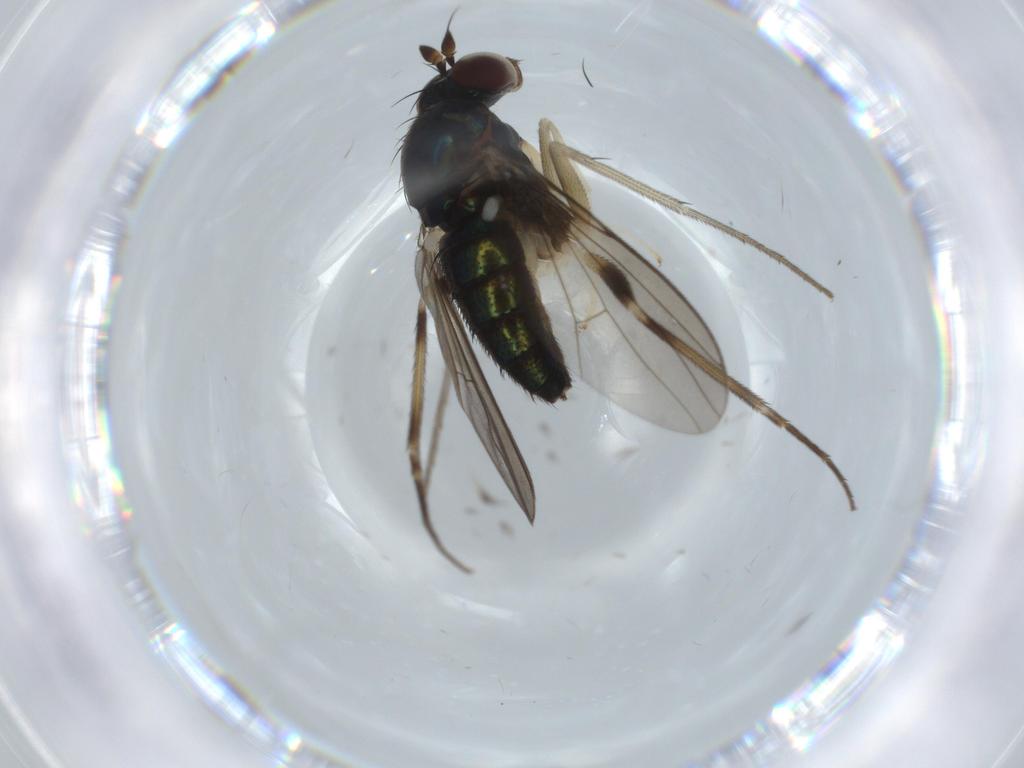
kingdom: Animalia
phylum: Arthropoda
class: Insecta
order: Diptera
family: Dolichopodidae
